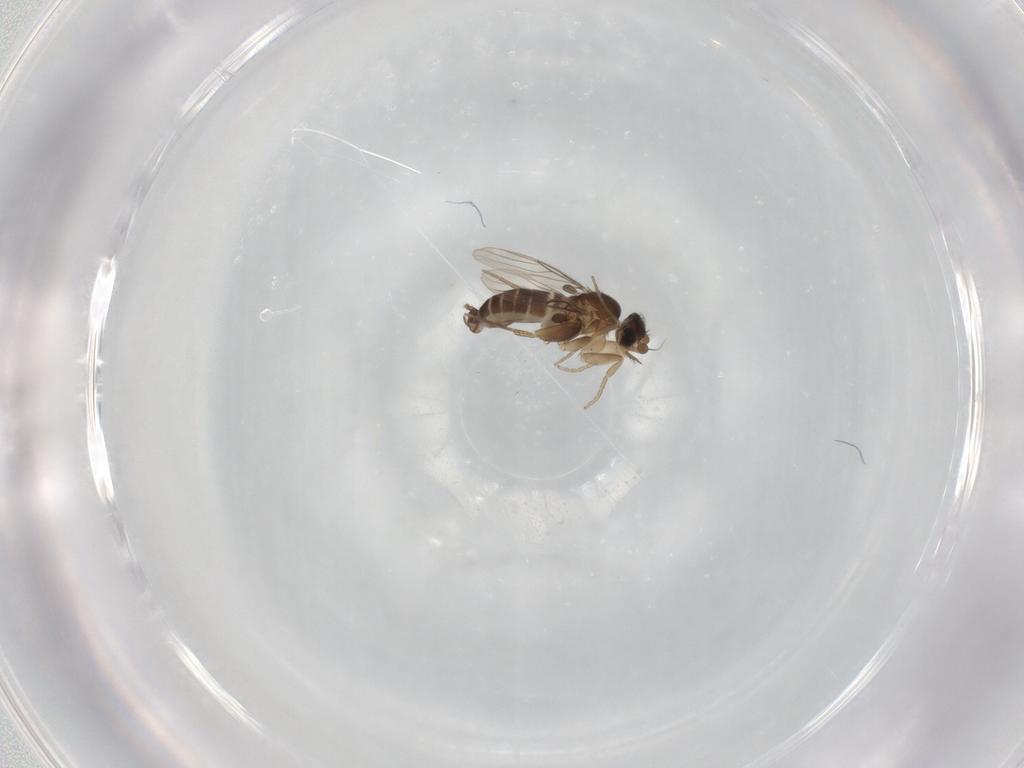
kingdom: Animalia
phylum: Arthropoda
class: Insecta
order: Diptera
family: Phoridae
